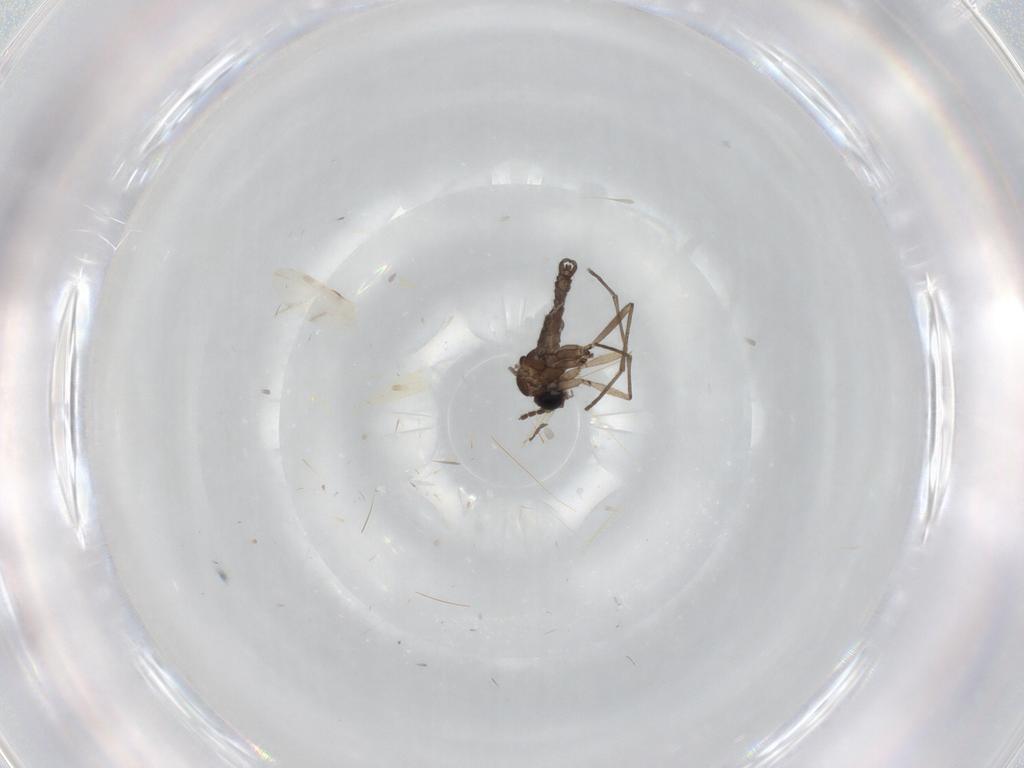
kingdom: Animalia
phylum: Arthropoda
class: Insecta
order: Diptera
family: Sciaridae
